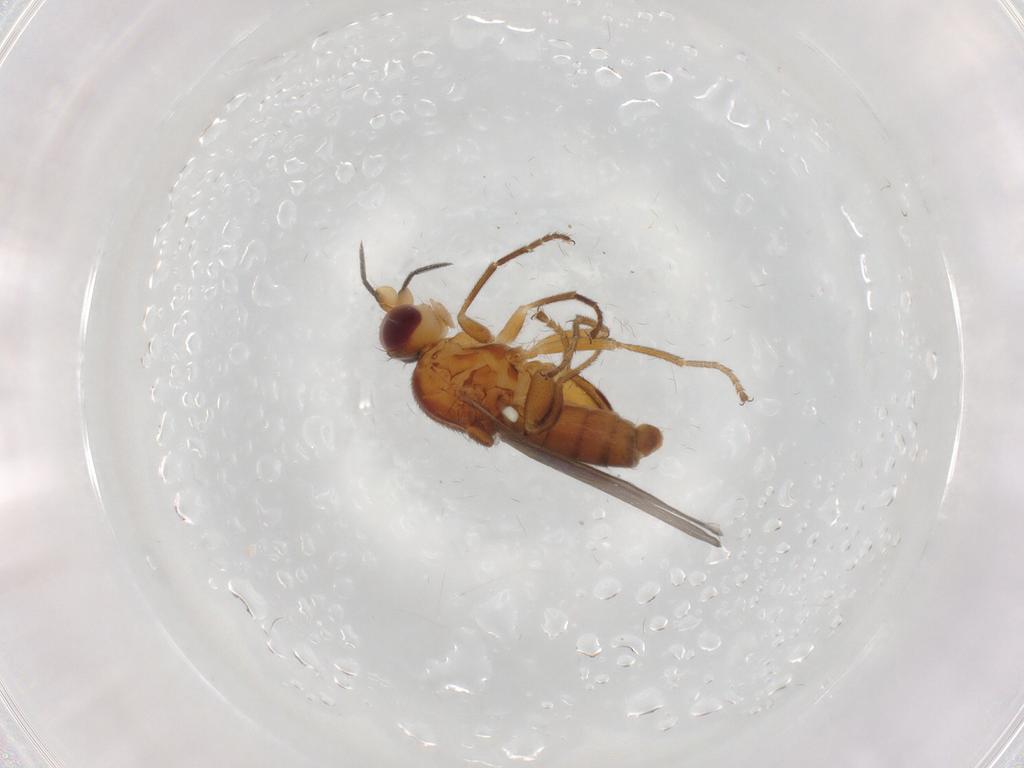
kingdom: Animalia
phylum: Arthropoda
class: Insecta
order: Diptera
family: Chloropidae
